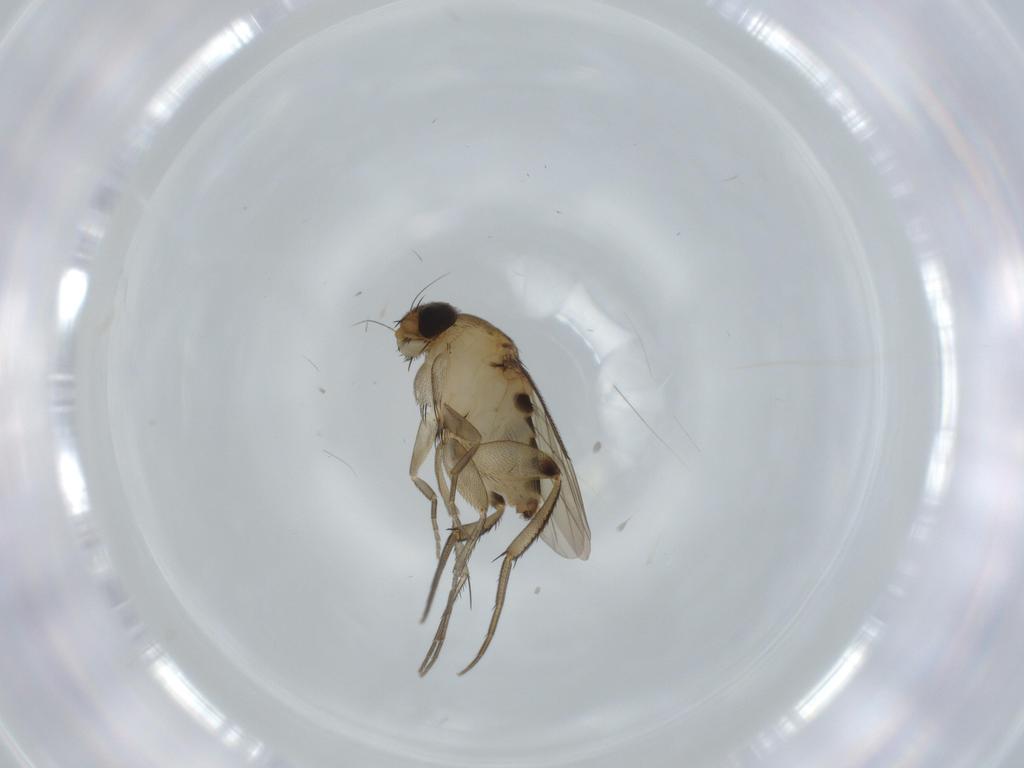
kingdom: Animalia
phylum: Arthropoda
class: Insecta
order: Diptera
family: Phoridae
